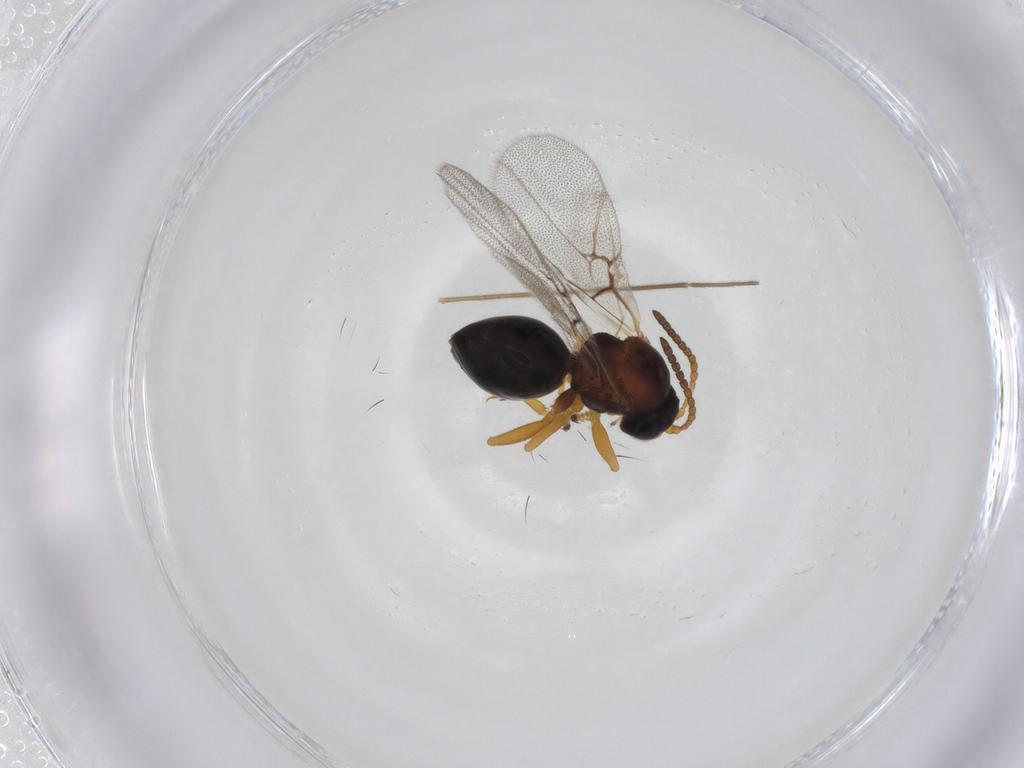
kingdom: Animalia
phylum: Arthropoda
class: Insecta
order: Hymenoptera
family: Cynipidae
